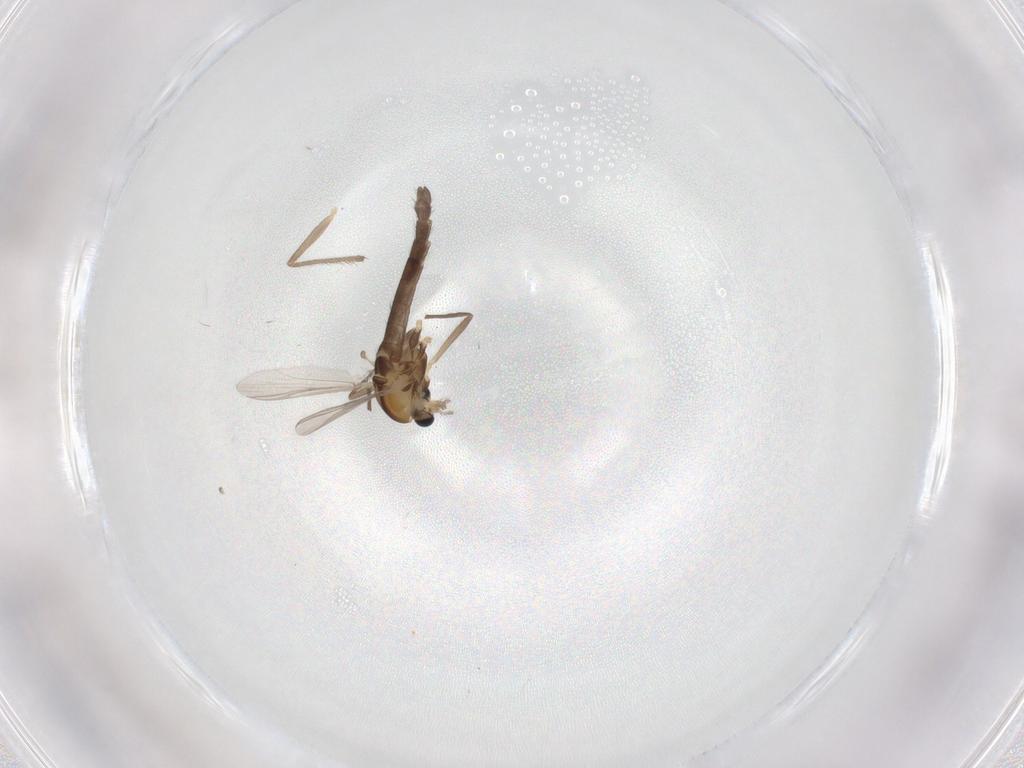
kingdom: Animalia
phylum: Arthropoda
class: Insecta
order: Diptera
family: Chironomidae
